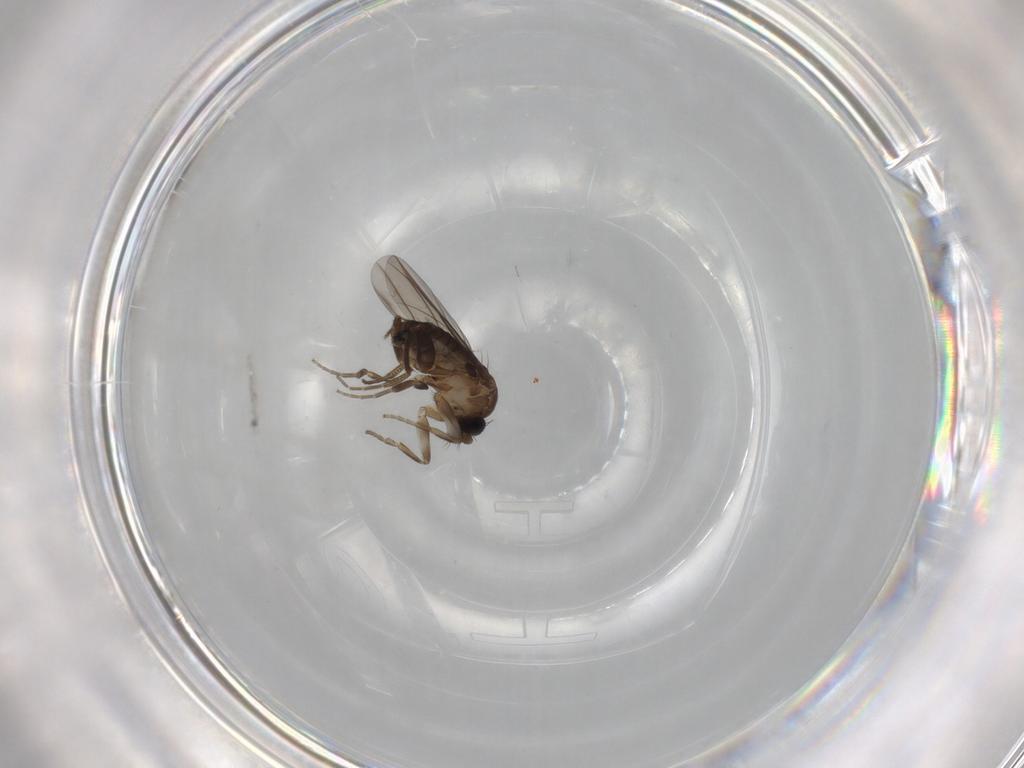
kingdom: Animalia
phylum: Arthropoda
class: Insecta
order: Diptera
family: Phoridae
